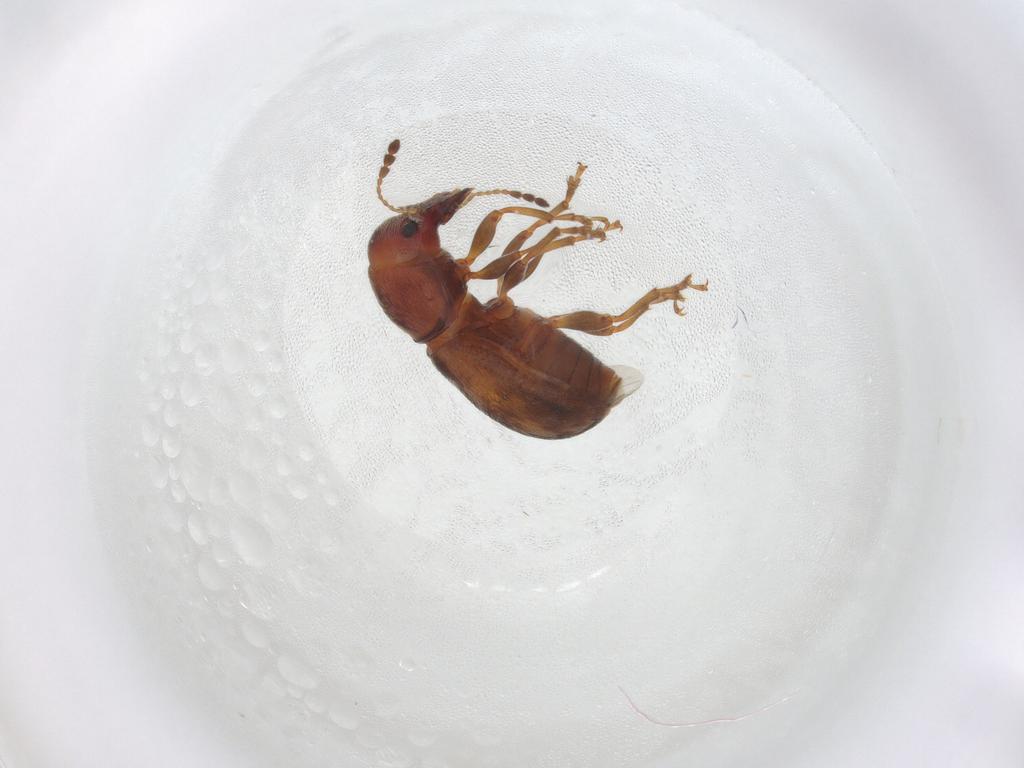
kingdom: Animalia
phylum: Arthropoda
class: Insecta
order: Coleoptera
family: Anthribidae
